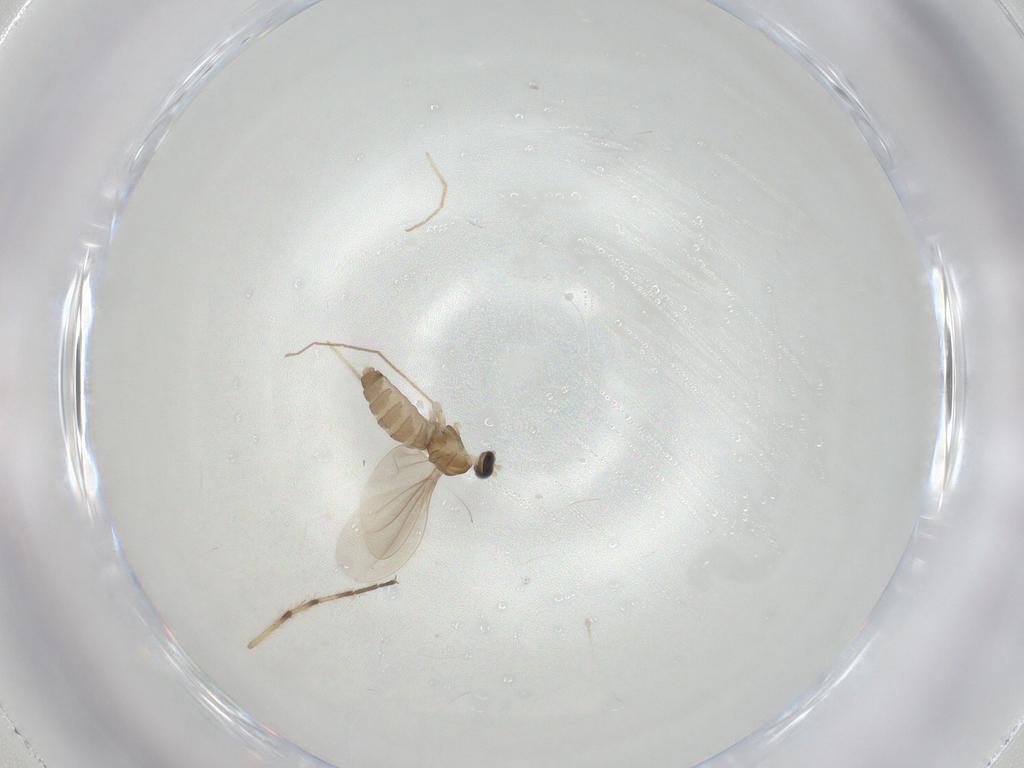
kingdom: Animalia
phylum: Arthropoda
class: Insecta
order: Diptera
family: Cecidomyiidae
